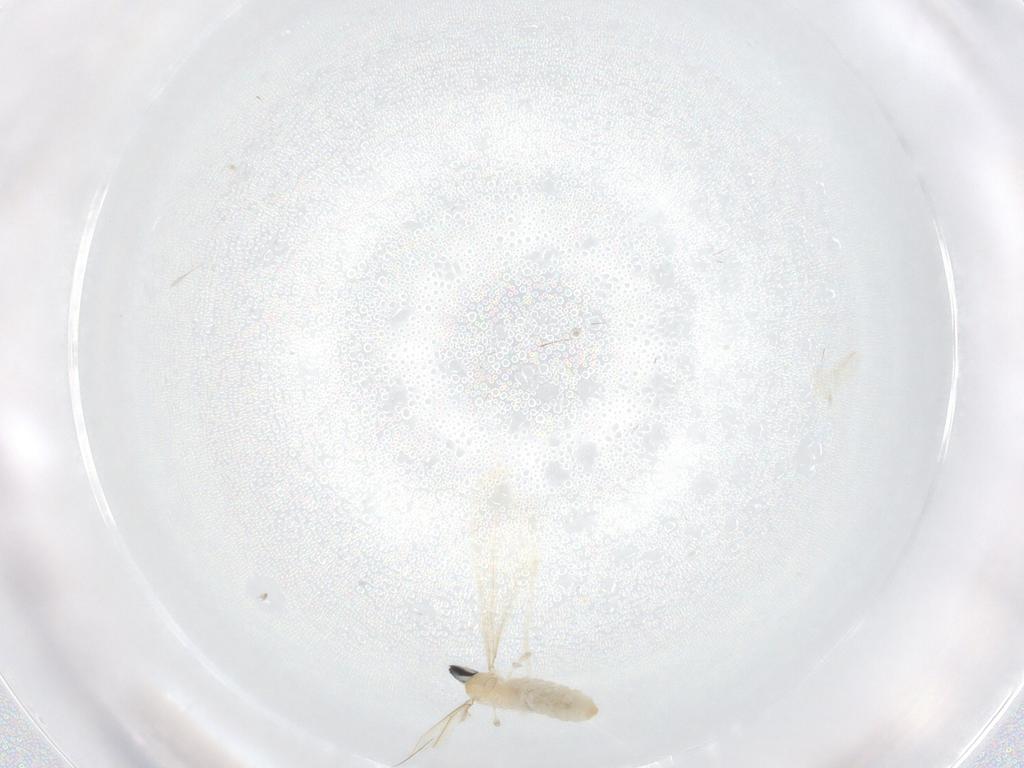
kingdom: Animalia
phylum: Arthropoda
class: Insecta
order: Diptera
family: Cecidomyiidae
